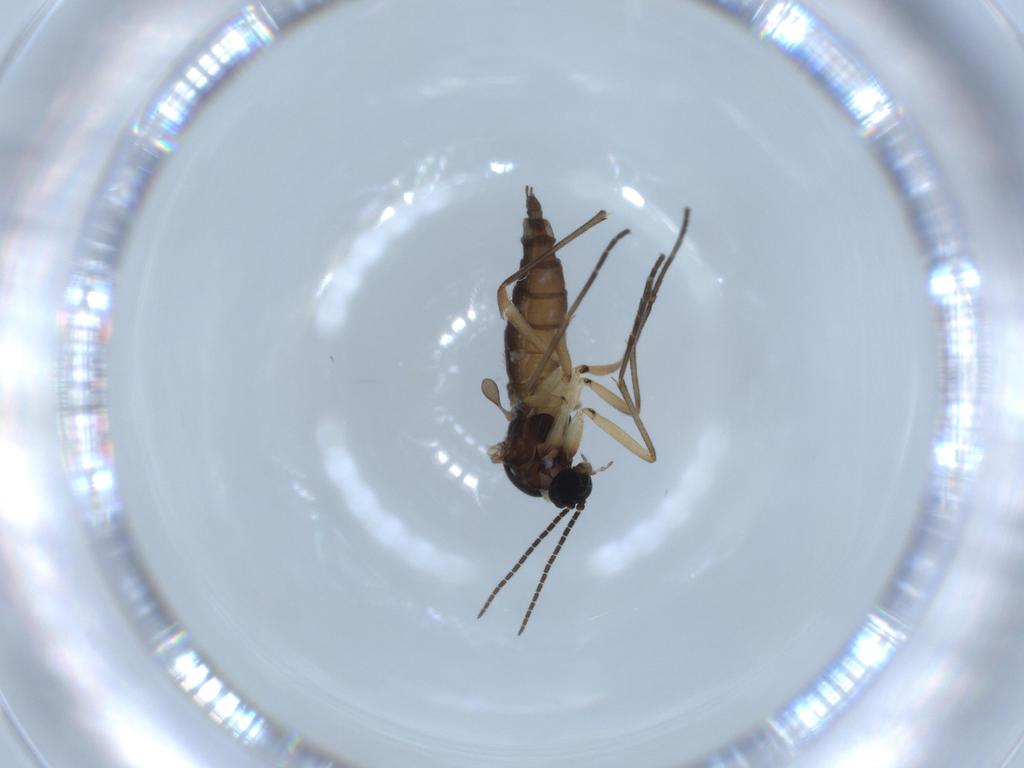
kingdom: Animalia
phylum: Arthropoda
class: Insecta
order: Diptera
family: Sciaridae
